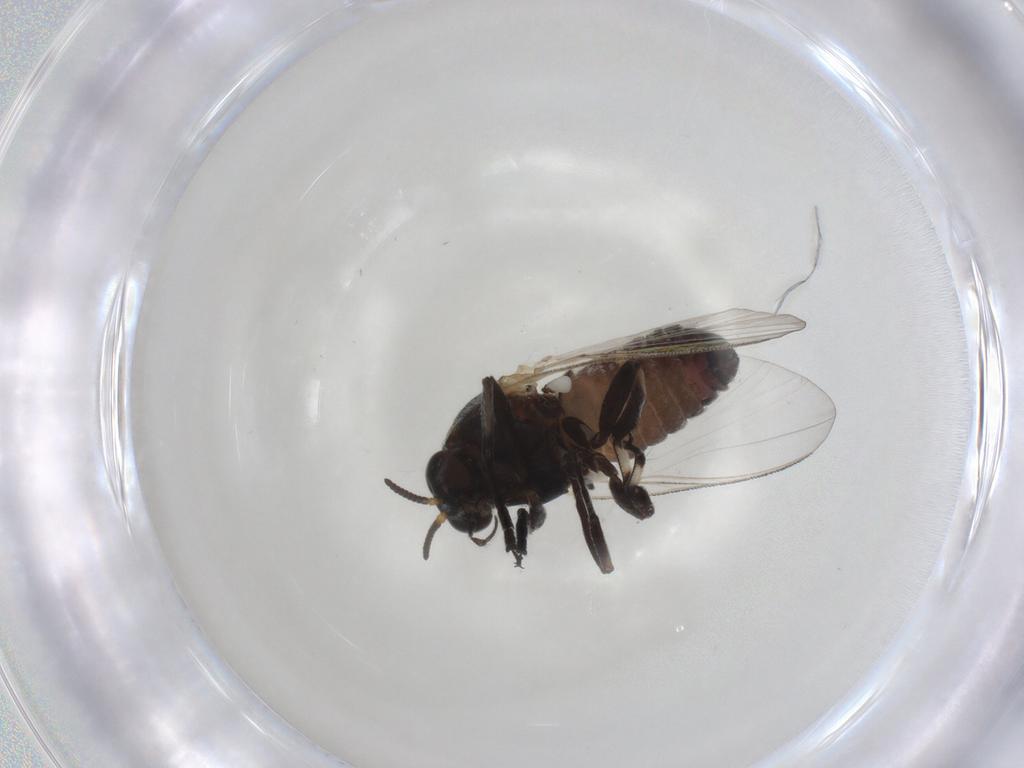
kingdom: Animalia
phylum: Arthropoda
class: Insecta
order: Diptera
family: Simuliidae
